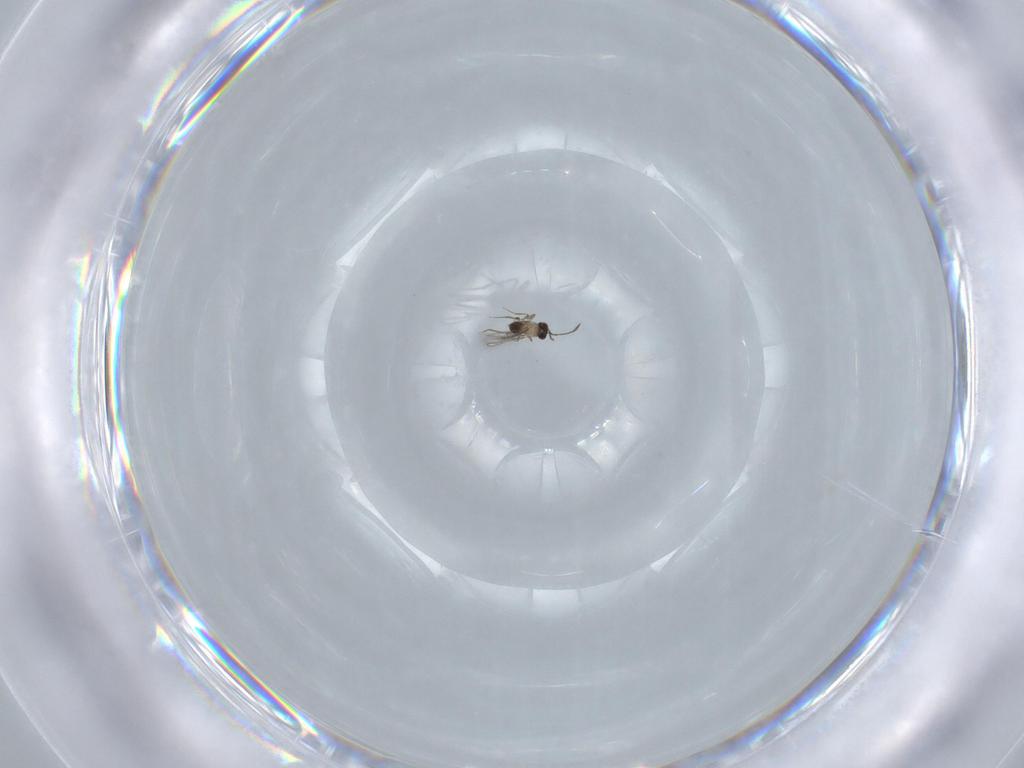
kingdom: Animalia
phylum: Arthropoda
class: Insecta
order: Hymenoptera
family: Mymaridae
